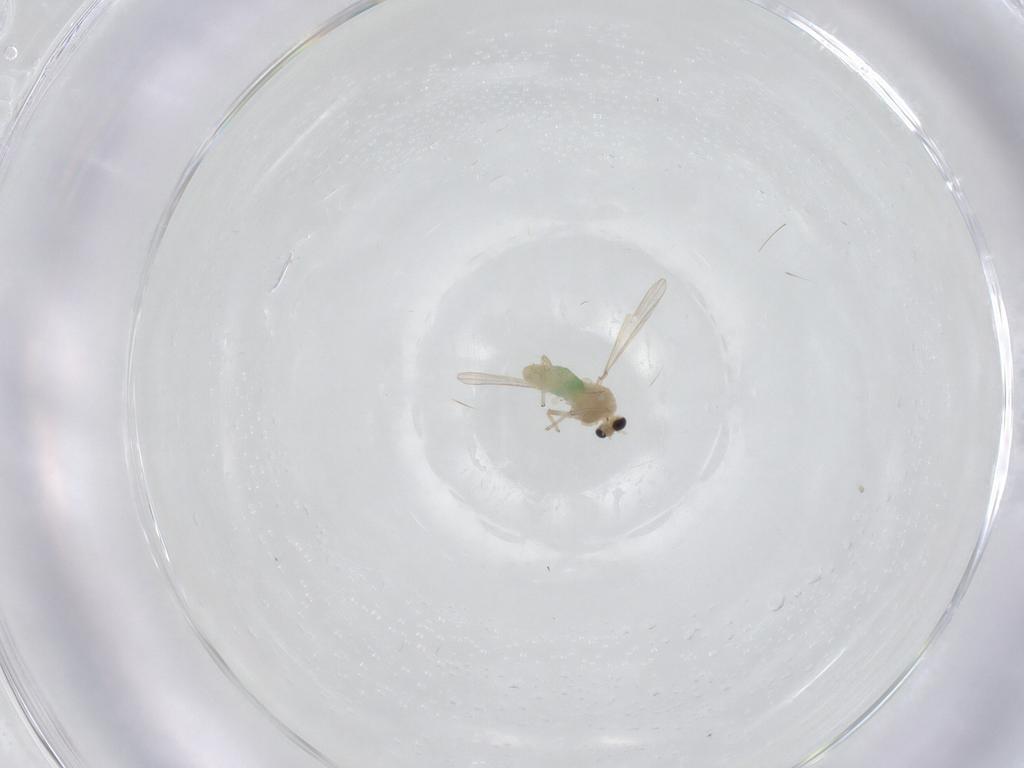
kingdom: Animalia
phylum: Arthropoda
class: Insecta
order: Diptera
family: Chironomidae
